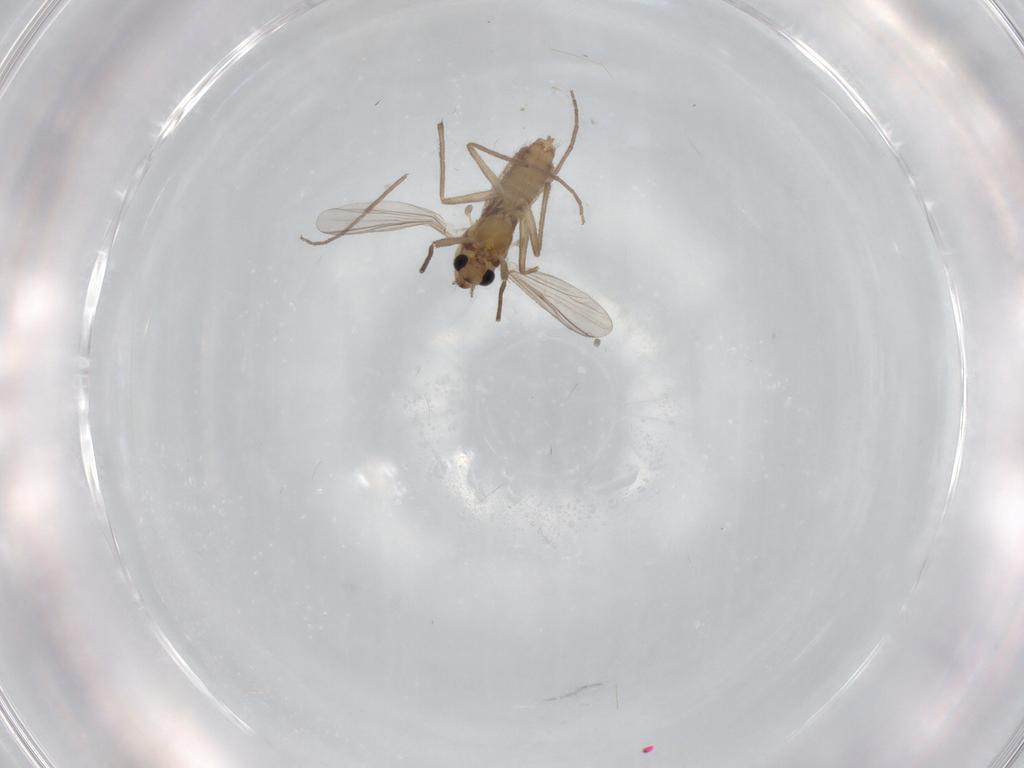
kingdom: Animalia
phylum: Arthropoda
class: Insecta
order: Diptera
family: Chironomidae
